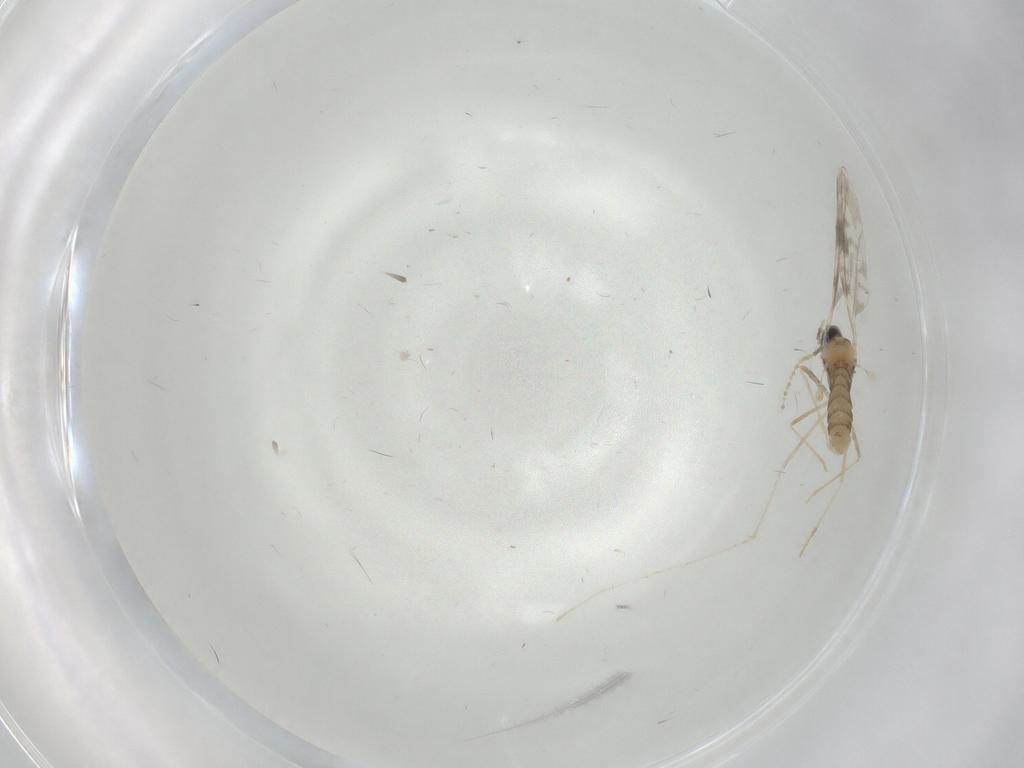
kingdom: Animalia
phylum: Arthropoda
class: Insecta
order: Diptera
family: Cecidomyiidae
